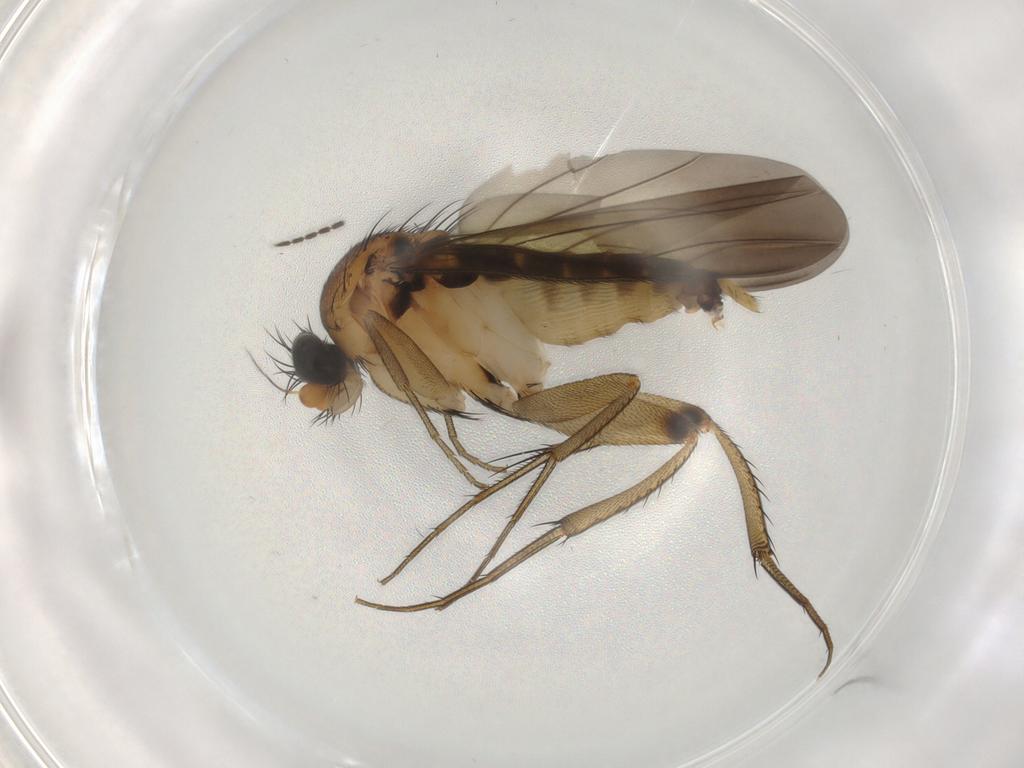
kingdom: Animalia
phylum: Arthropoda
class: Insecta
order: Diptera
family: Phoridae
